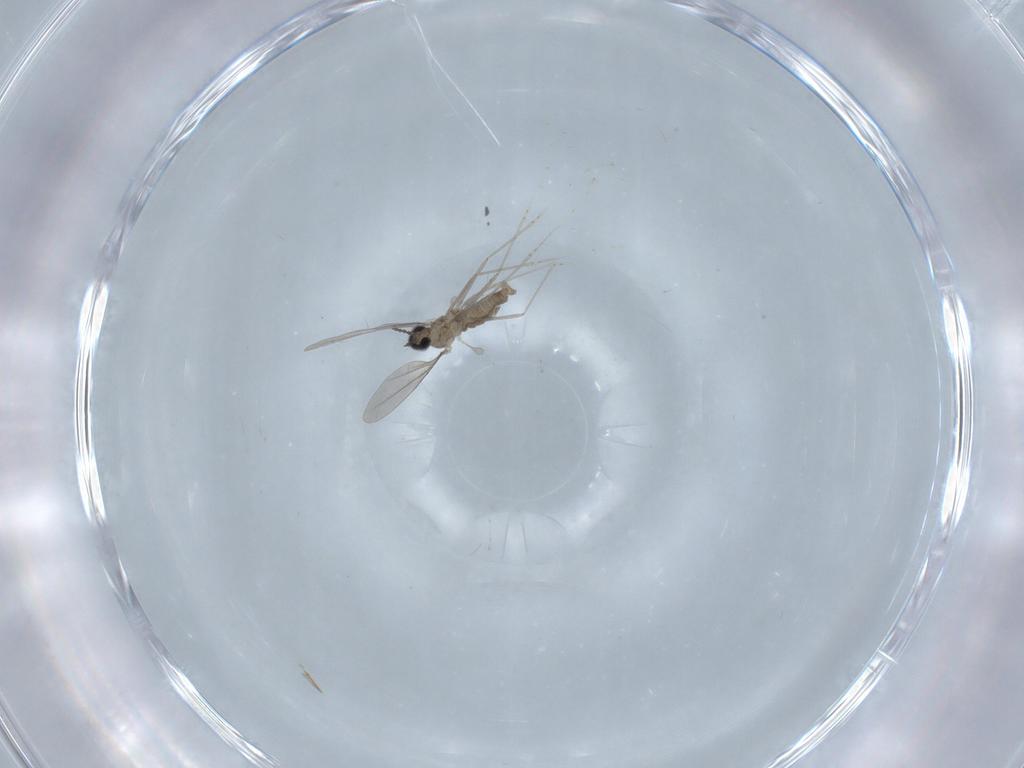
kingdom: Animalia
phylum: Arthropoda
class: Insecta
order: Diptera
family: Cecidomyiidae
